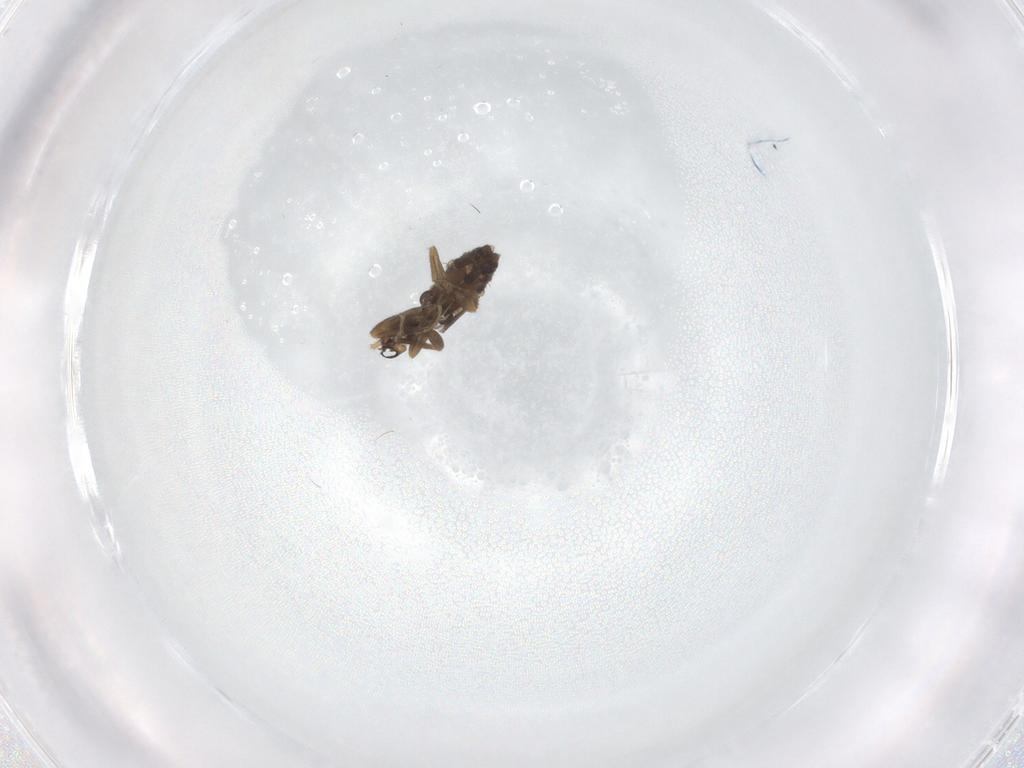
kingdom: Animalia
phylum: Arthropoda
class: Insecta
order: Diptera
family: Phoridae
